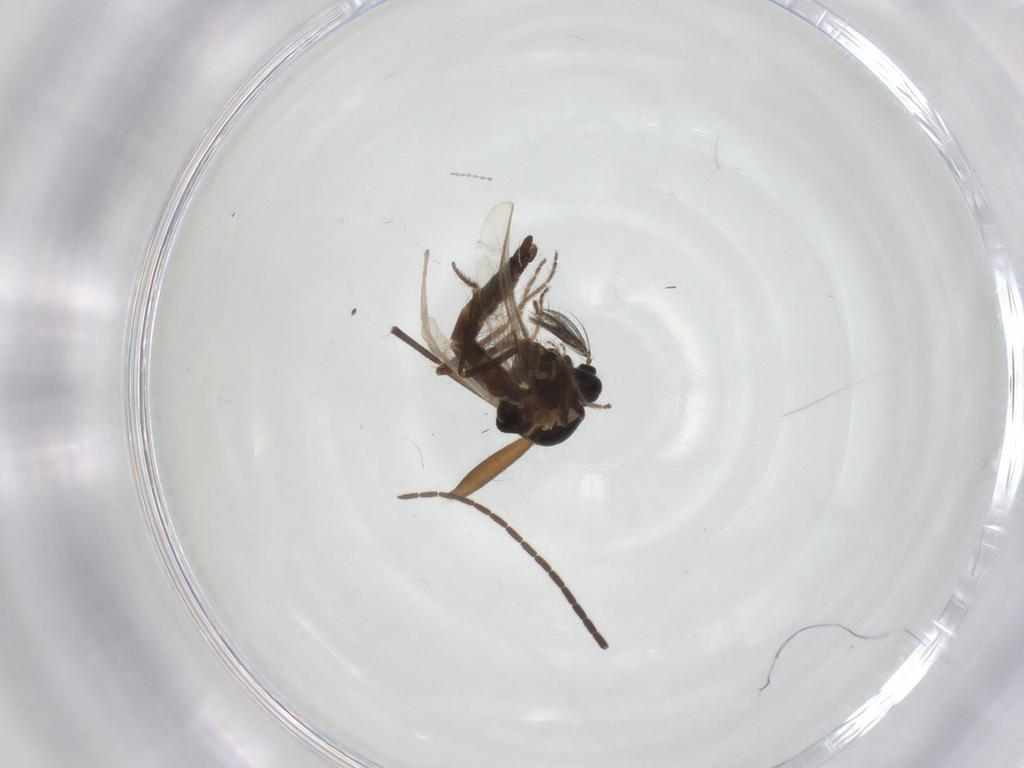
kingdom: Animalia
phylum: Arthropoda
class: Insecta
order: Diptera
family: Ceratopogonidae
